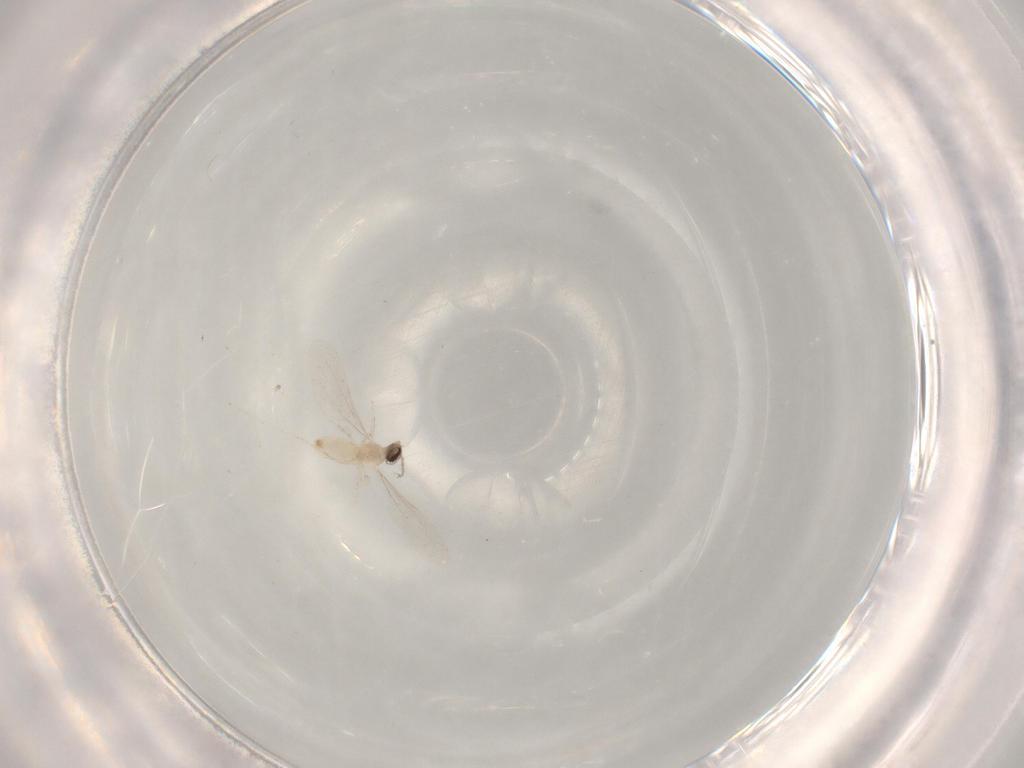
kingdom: Animalia
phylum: Arthropoda
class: Insecta
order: Diptera
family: Cecidomyiidae
